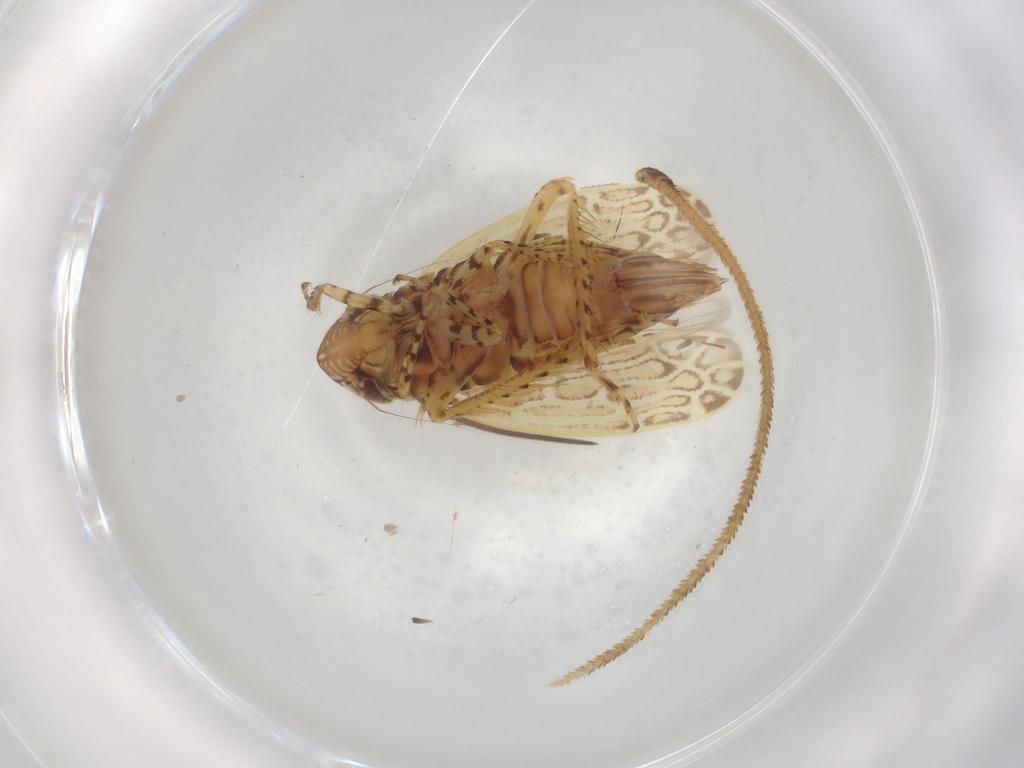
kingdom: Animalia
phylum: Arthropoda
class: Insecta
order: Hemiptera
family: Cicadellidae
